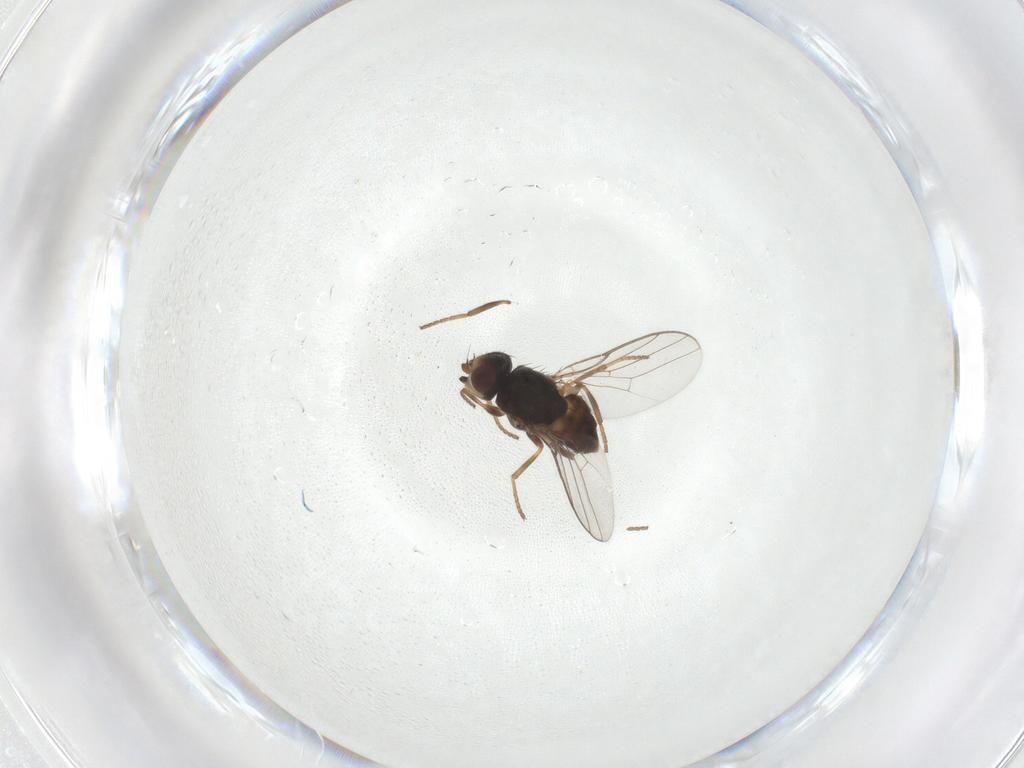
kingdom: Animalia
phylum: Arthropoda
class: Insecta
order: Diptera
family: Chloropidae
